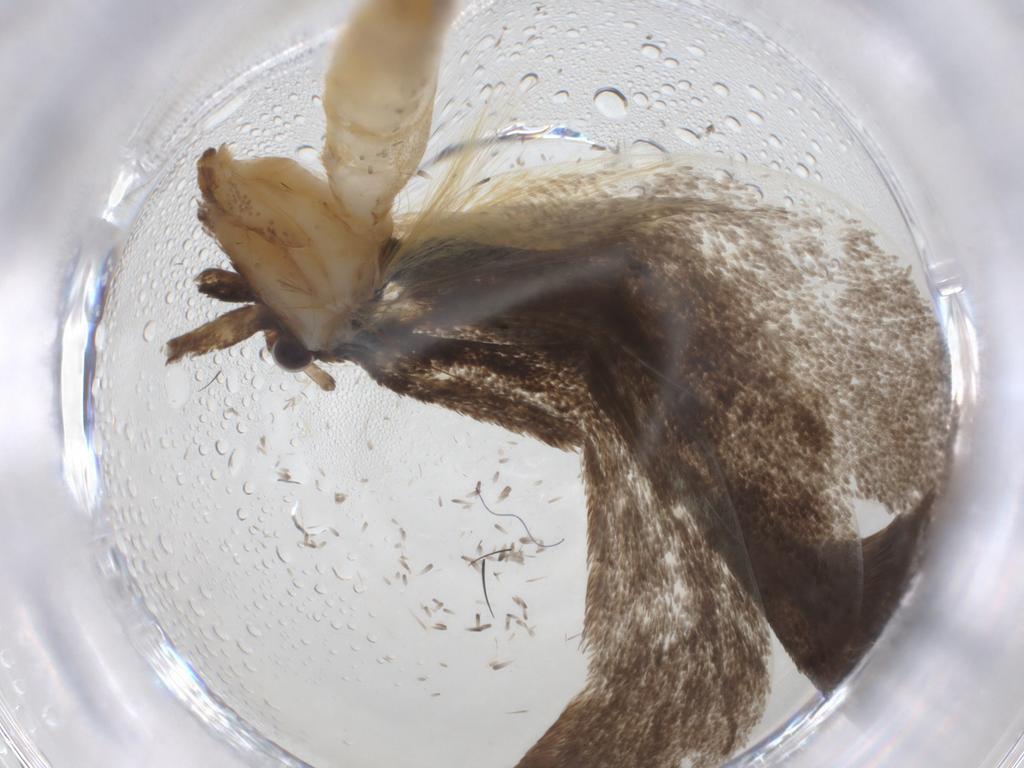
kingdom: Animalia
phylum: Arthropoda
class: Insecta
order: Lepidoptera
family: Oecophoridae
